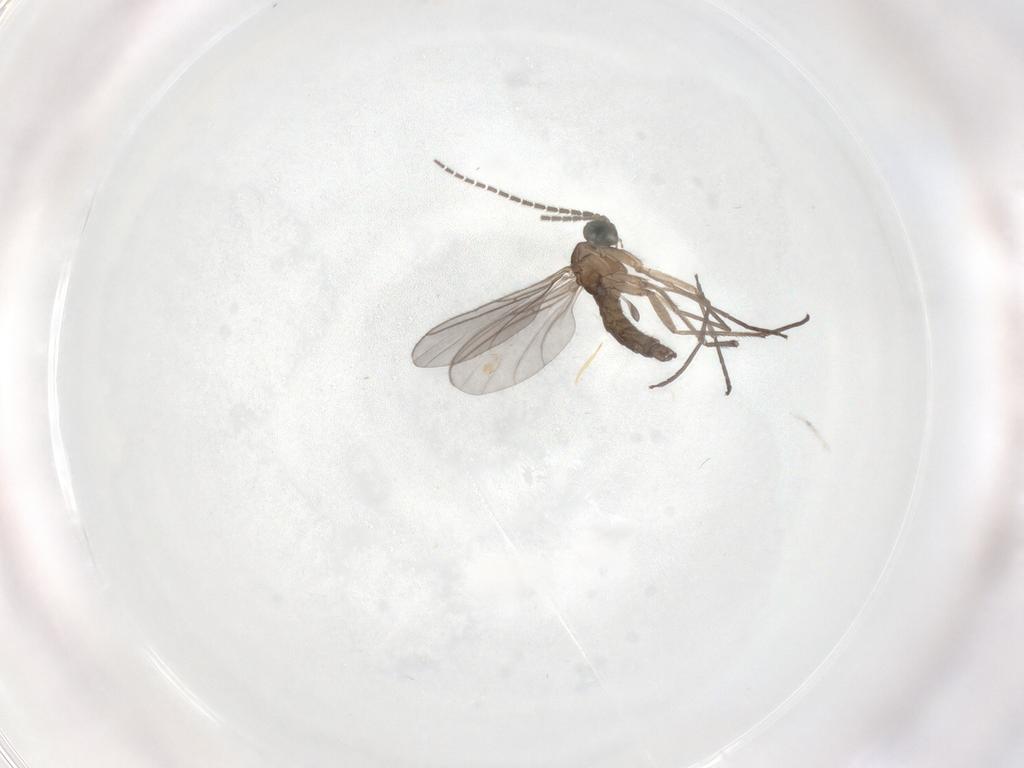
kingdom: Animalia
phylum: Arthropoda
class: Insecta
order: Diptera
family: Sciaridae
